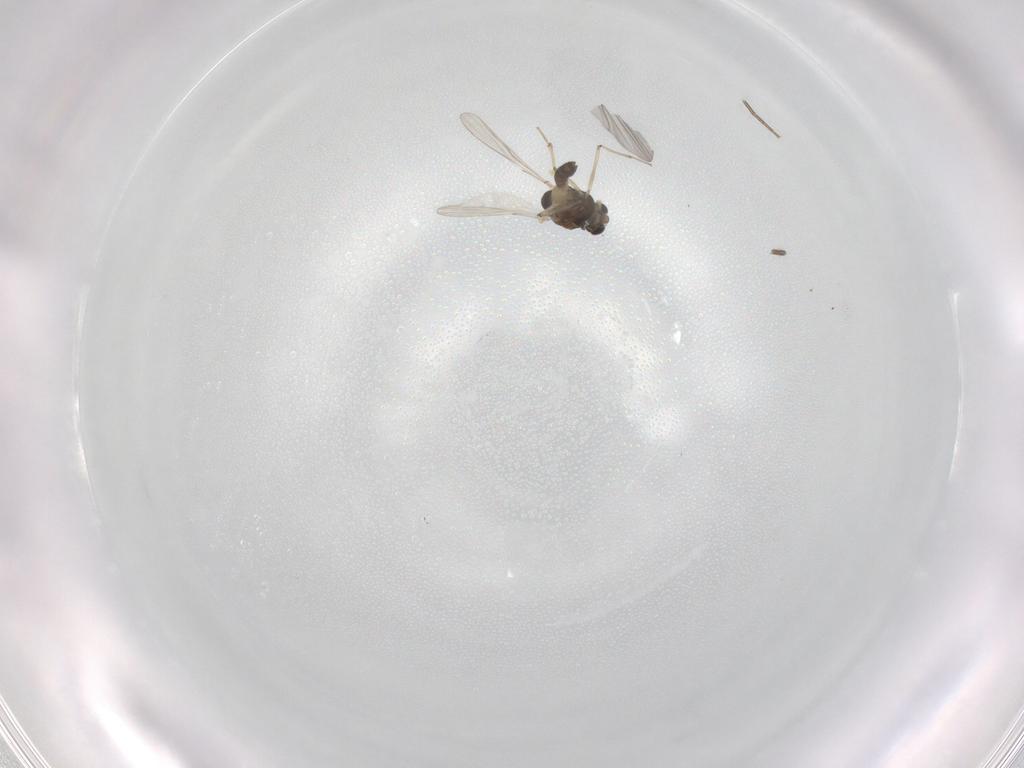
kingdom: Animalia
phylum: Arthropoda
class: Insecta
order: Diptera
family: Chironomidae
